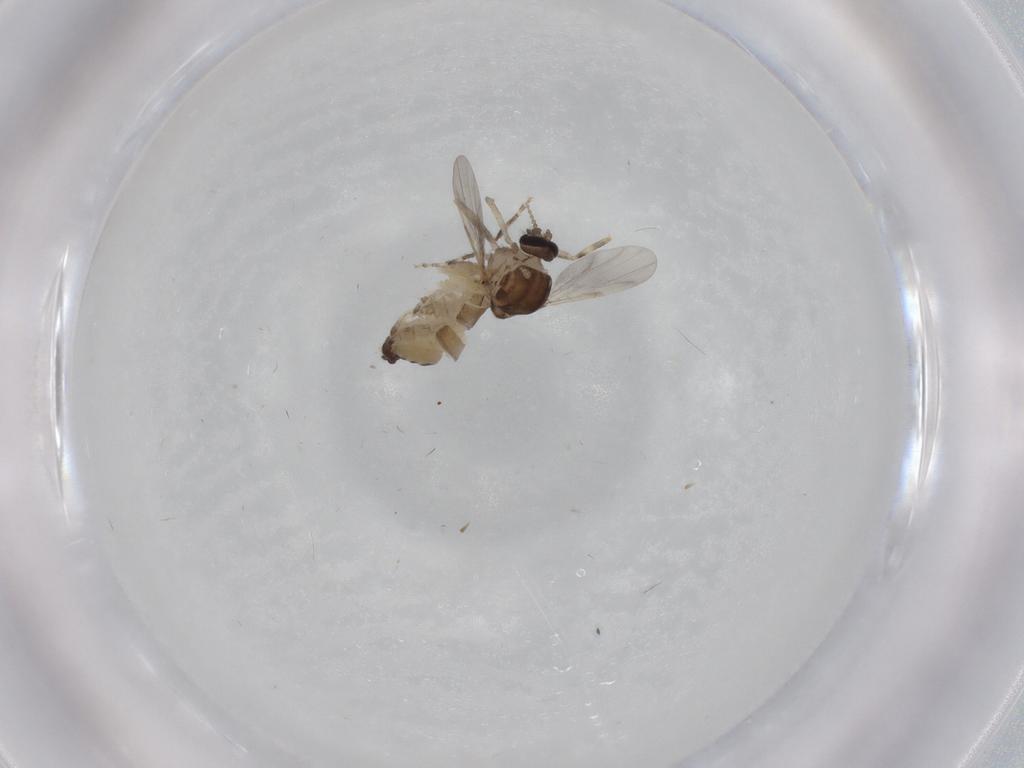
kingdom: Animalia
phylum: Arthropoda
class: Insecta
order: Diptera
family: Ceratopogonidae
